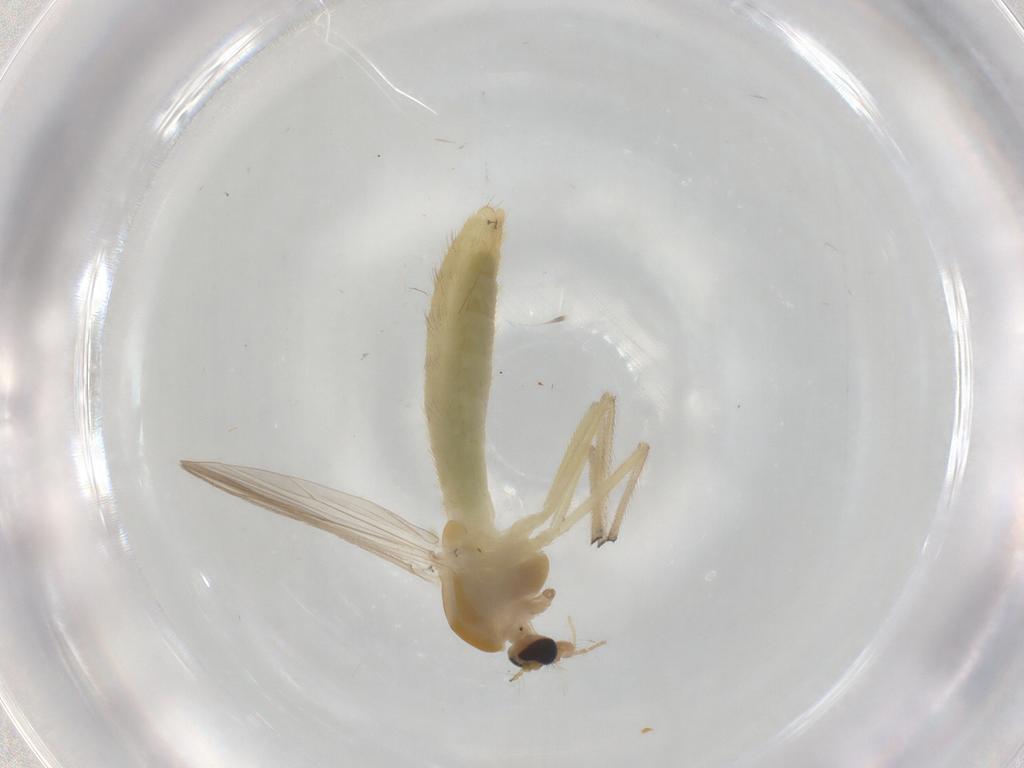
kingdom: Animalia
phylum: Arthropoda
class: Insecta
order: Diptera
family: Chironomidae
